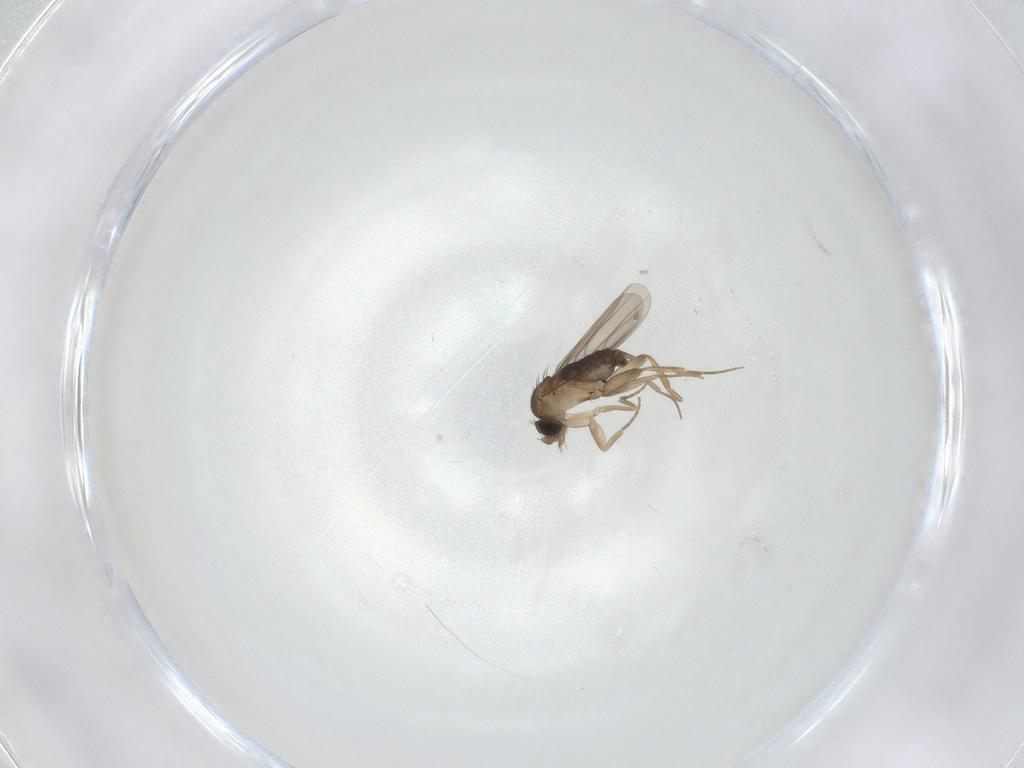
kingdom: Animalia
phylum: Arthropoda
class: Insecta
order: Diptera
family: Phoridae
